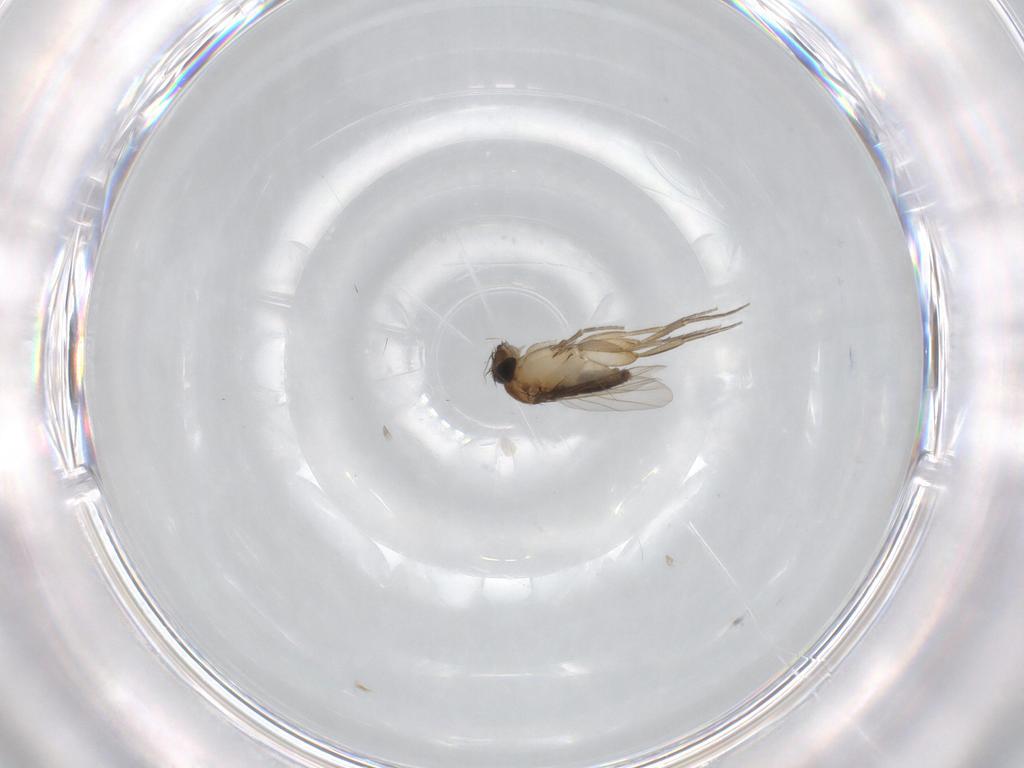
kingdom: Animalia
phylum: Arthropoda
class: Insecta
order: Diptera
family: Phoridae
